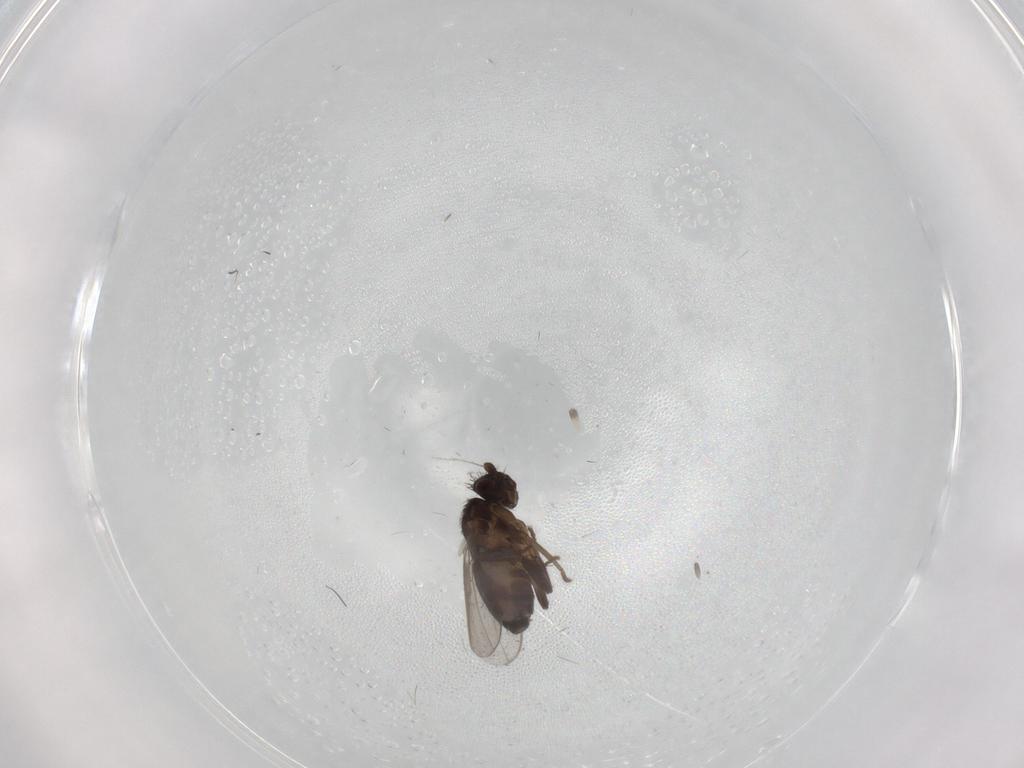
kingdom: Animalia
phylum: Arthropoda
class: Insecta
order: Diptera
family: Sphaeroceridae
